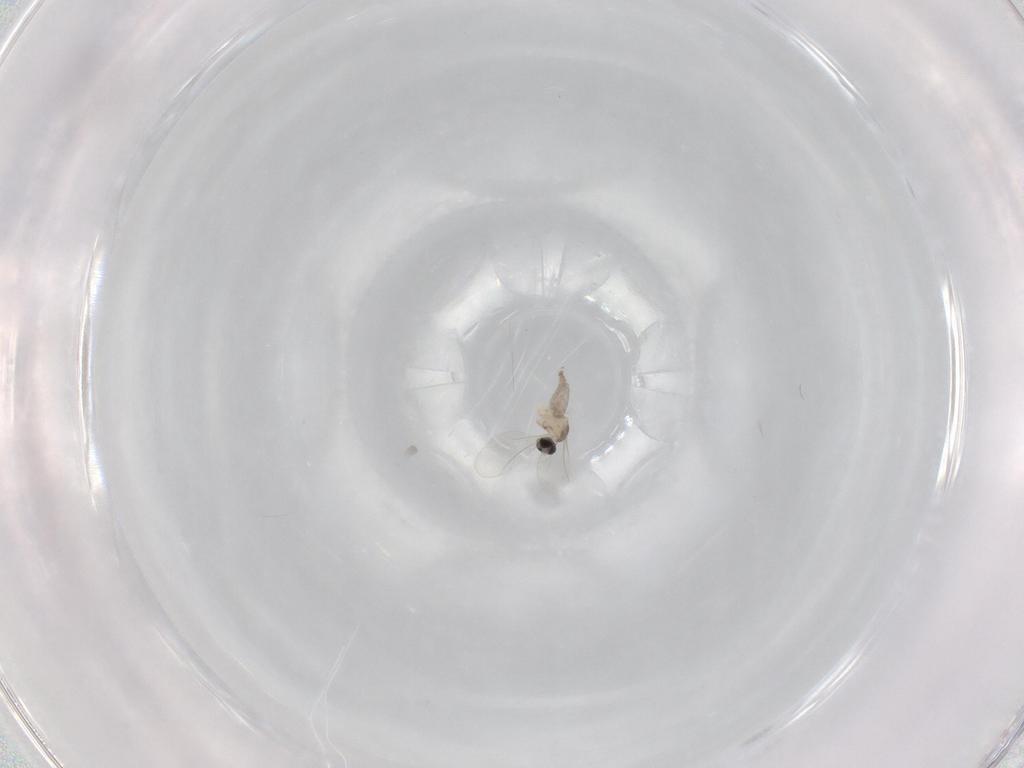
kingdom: Animalia
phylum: Arthropoda
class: Insecta
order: Diptera
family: Cecidomyiidae
